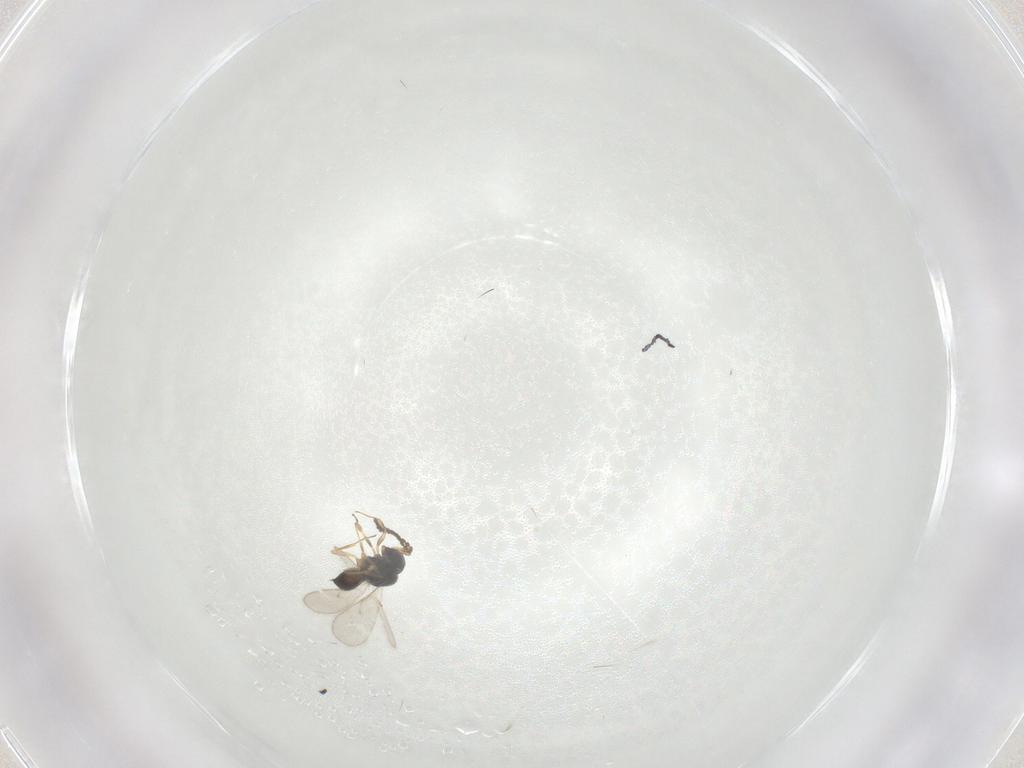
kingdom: Animalia
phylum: Arthropoda
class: Insecta
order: Hymenoptera
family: Scelionidae
